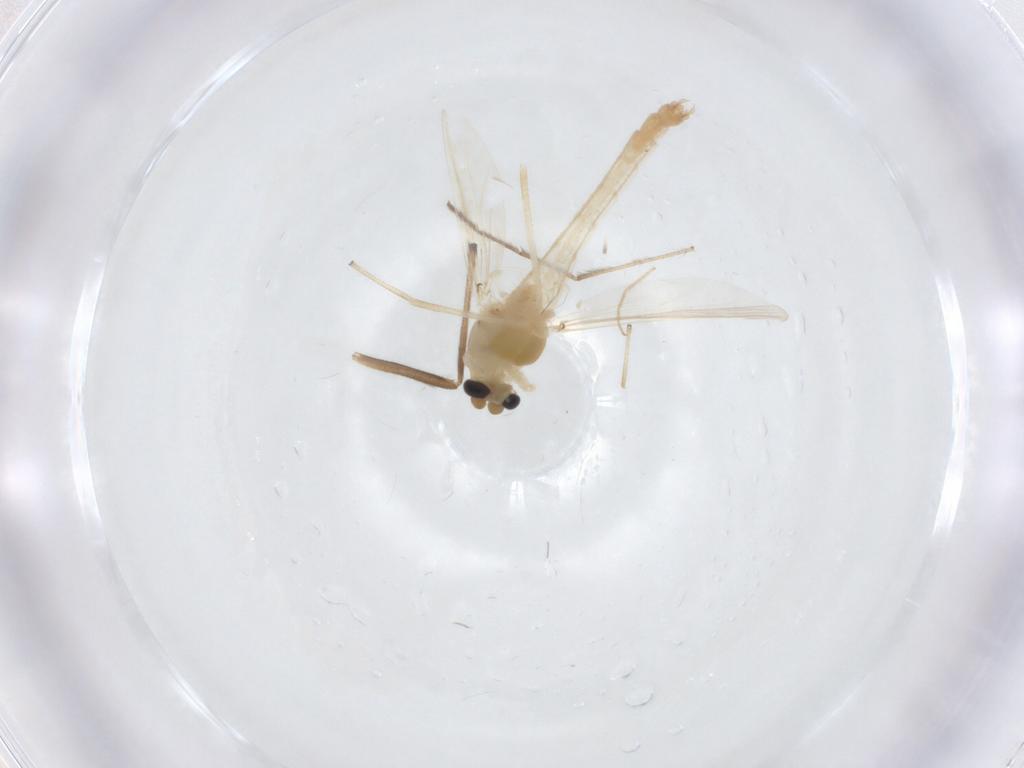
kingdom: Animalia
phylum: Arthropoda
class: Insecta
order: Diptera
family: Chironomidae
